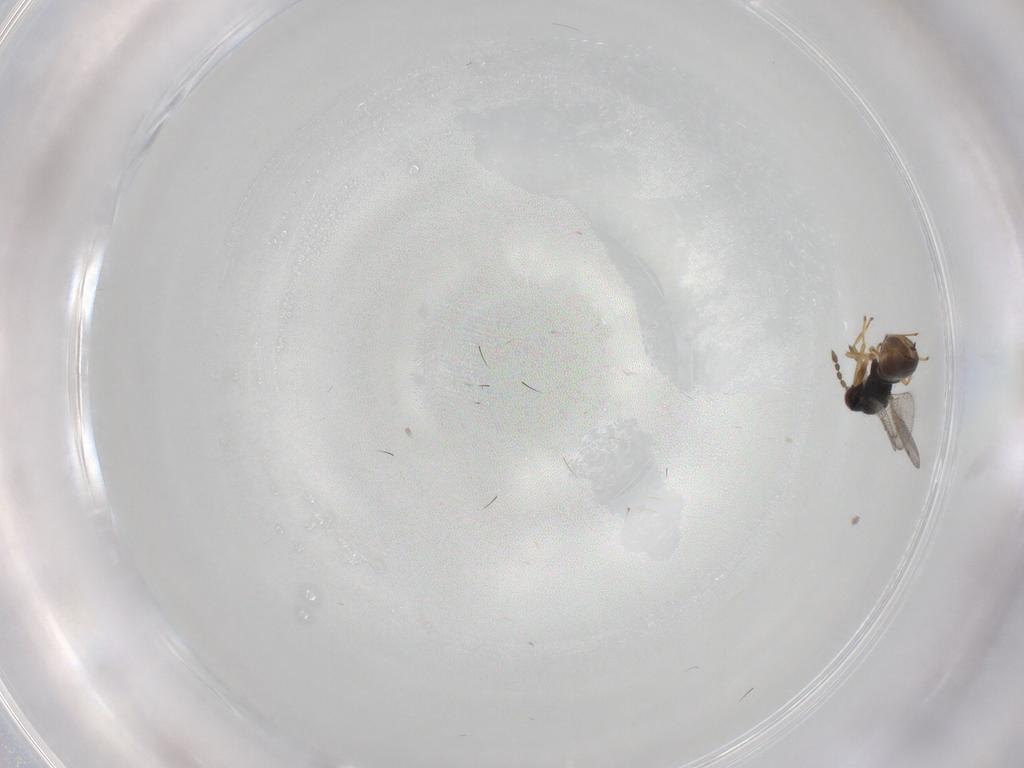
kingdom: Animalia
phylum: Arthropoda
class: Insecta
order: Hymenoptera
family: Eulophidae
